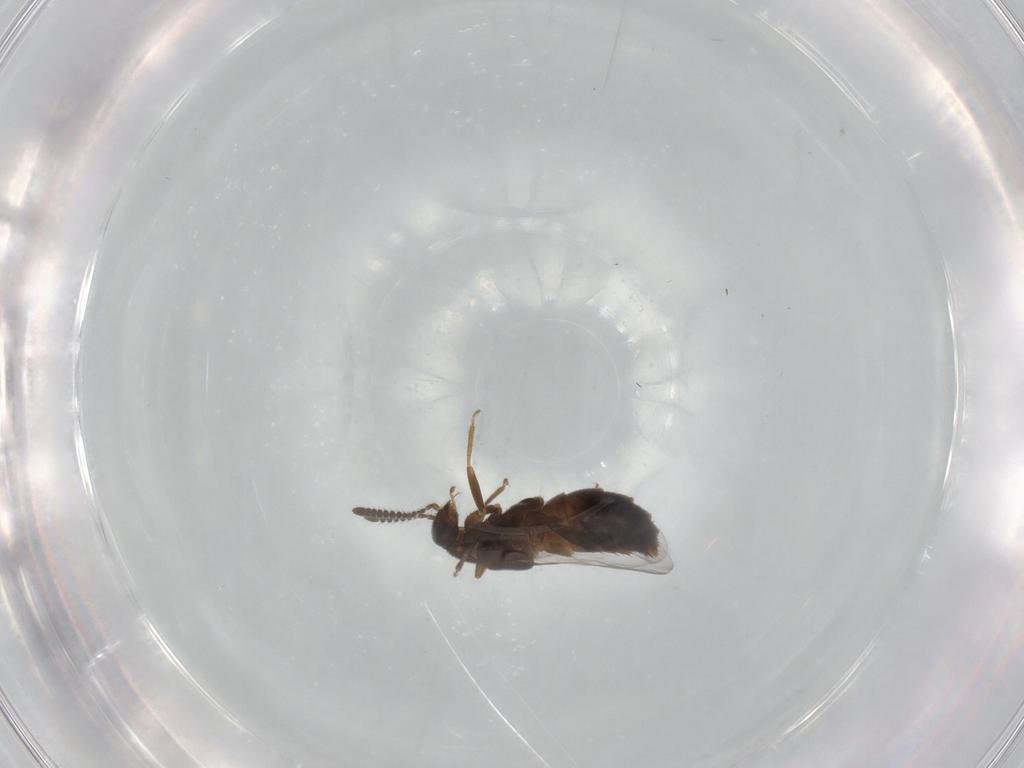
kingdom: Animalia
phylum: Arthropoda
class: Insecta
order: Coleoptera
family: Staphylinidae
